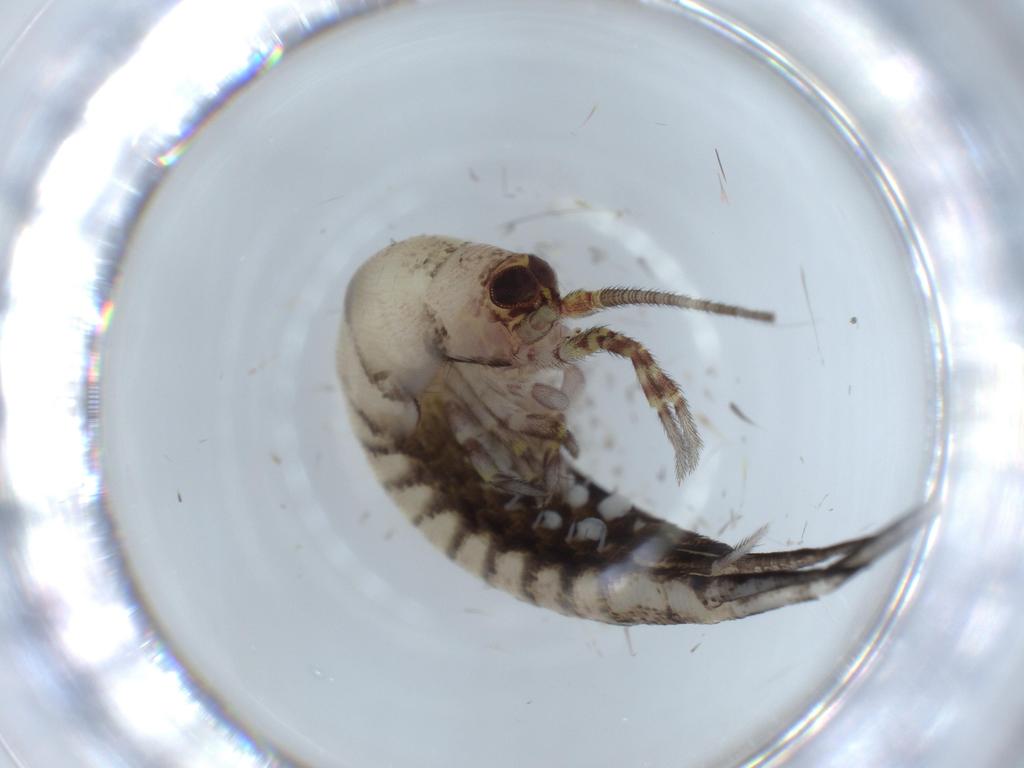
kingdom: Animalia
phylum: Arthropoda
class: Insecta
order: Archaeognatha
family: Machilidae
